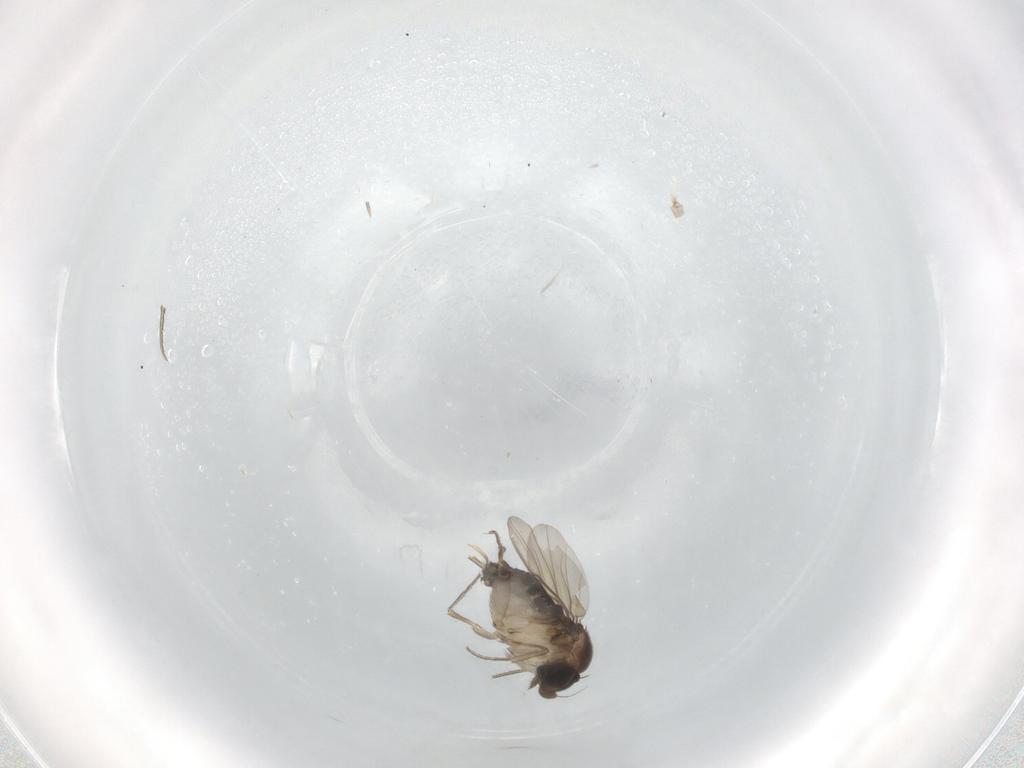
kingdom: Animalia
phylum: Arthropoda
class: Insecta
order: Diptera
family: Phoridae
